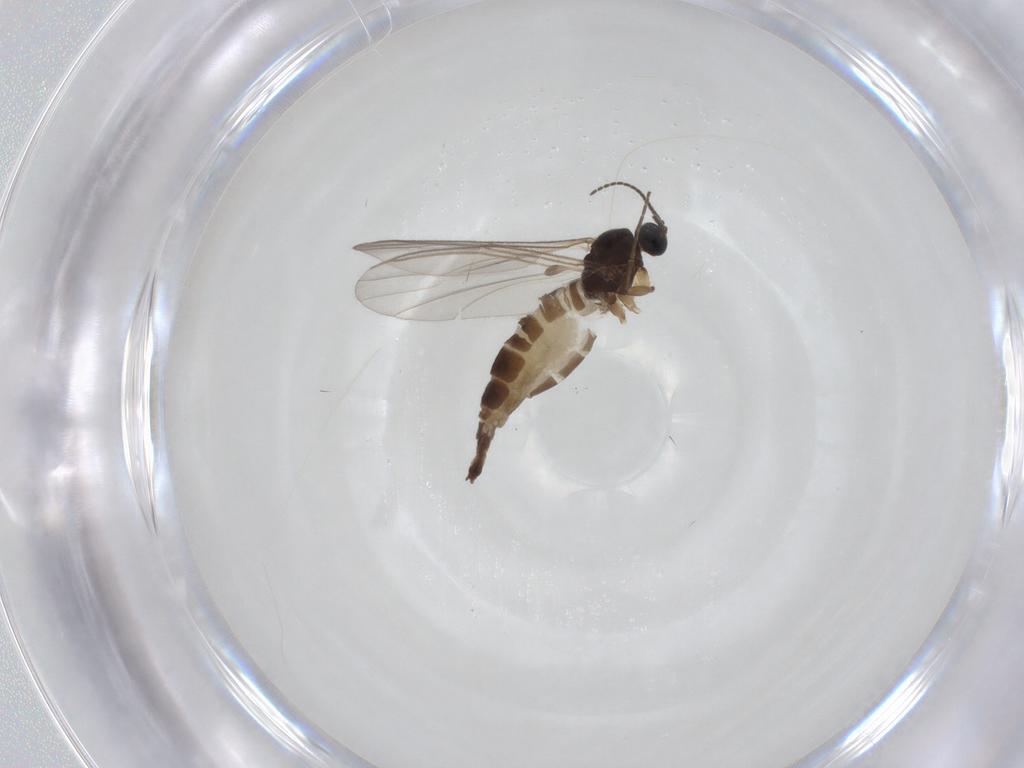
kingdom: Animalia
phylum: Arthropoda
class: Insecta
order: Diptera
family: Sciaridae
